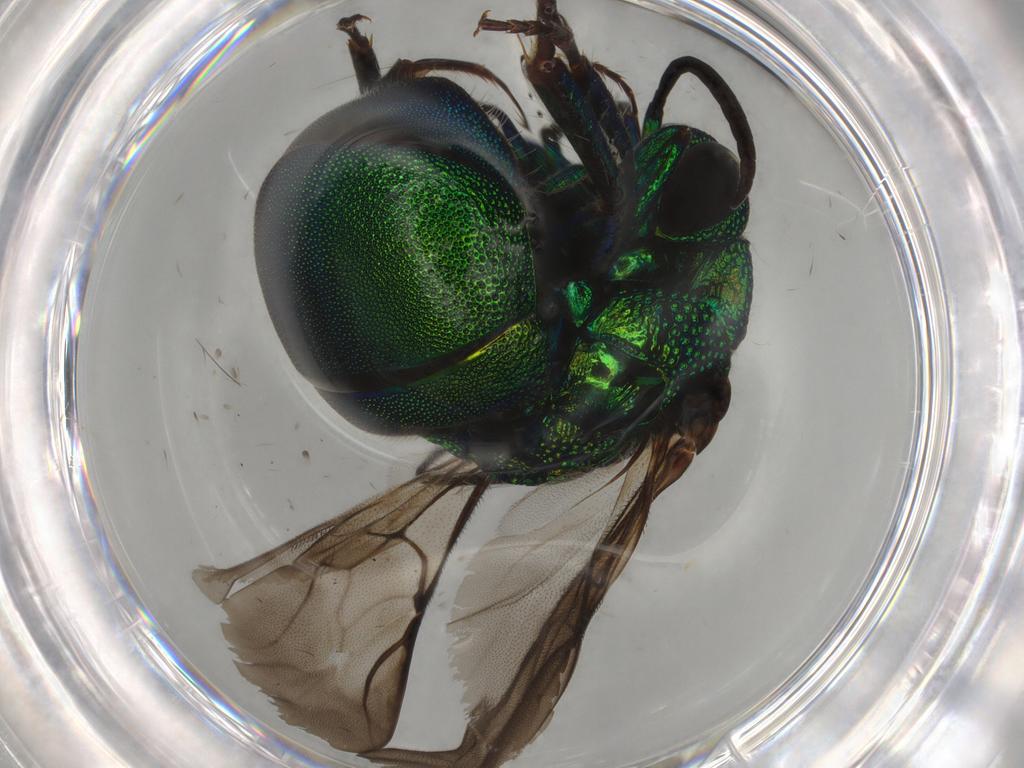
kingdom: Animalia
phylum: Arthropoda
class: Insecta
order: Hymenoptera
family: Chrysididae
